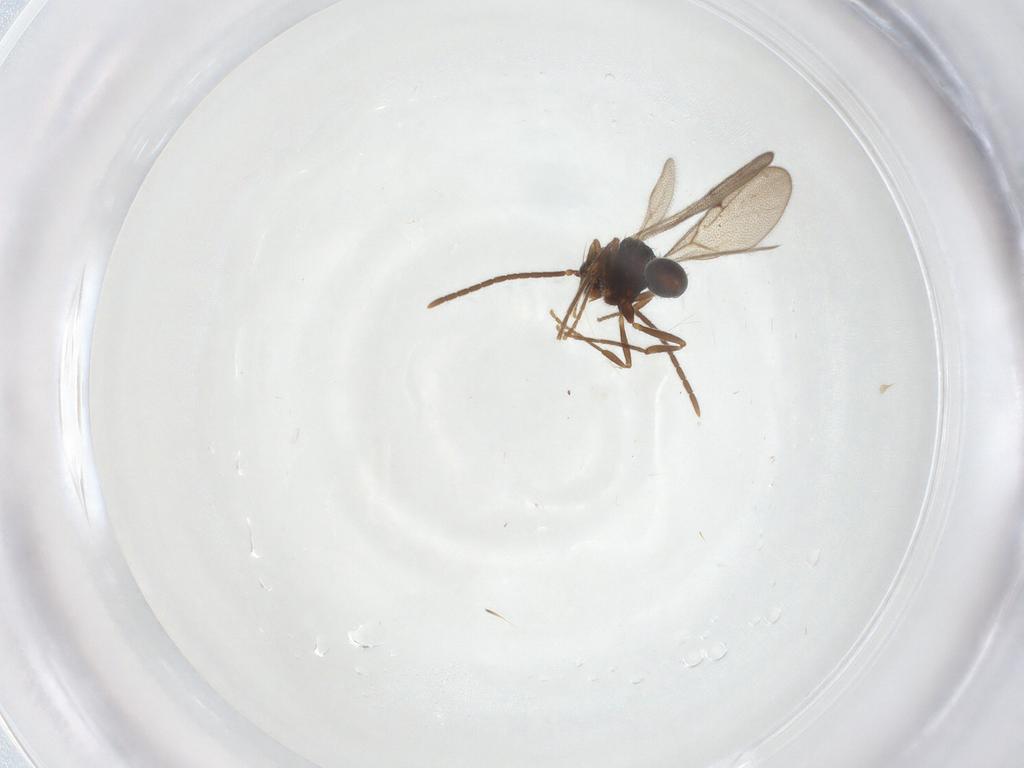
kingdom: Animalia
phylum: Arthropoda
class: Insecta
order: Hymenoptera
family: Formicidae
